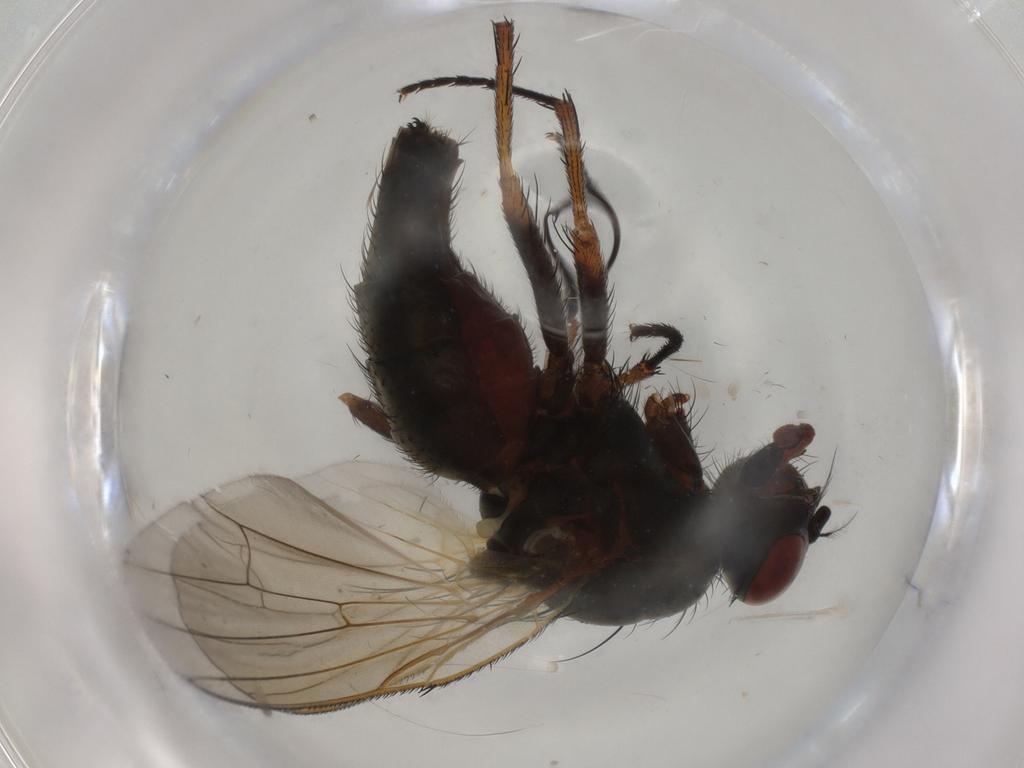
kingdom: Animalia
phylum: Arthropoda
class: Insecta
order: Diptera
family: Anthomyiidae
